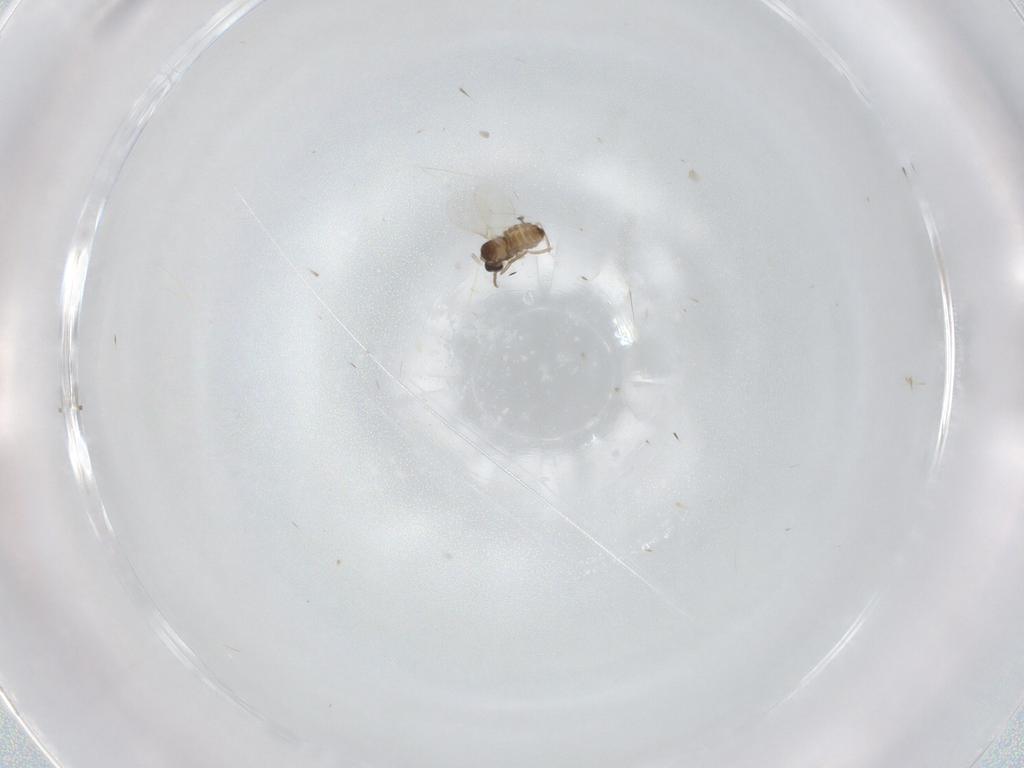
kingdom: Animalia
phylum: Arthropoda
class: Insecta
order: Diptera
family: Cecidomyiidae
